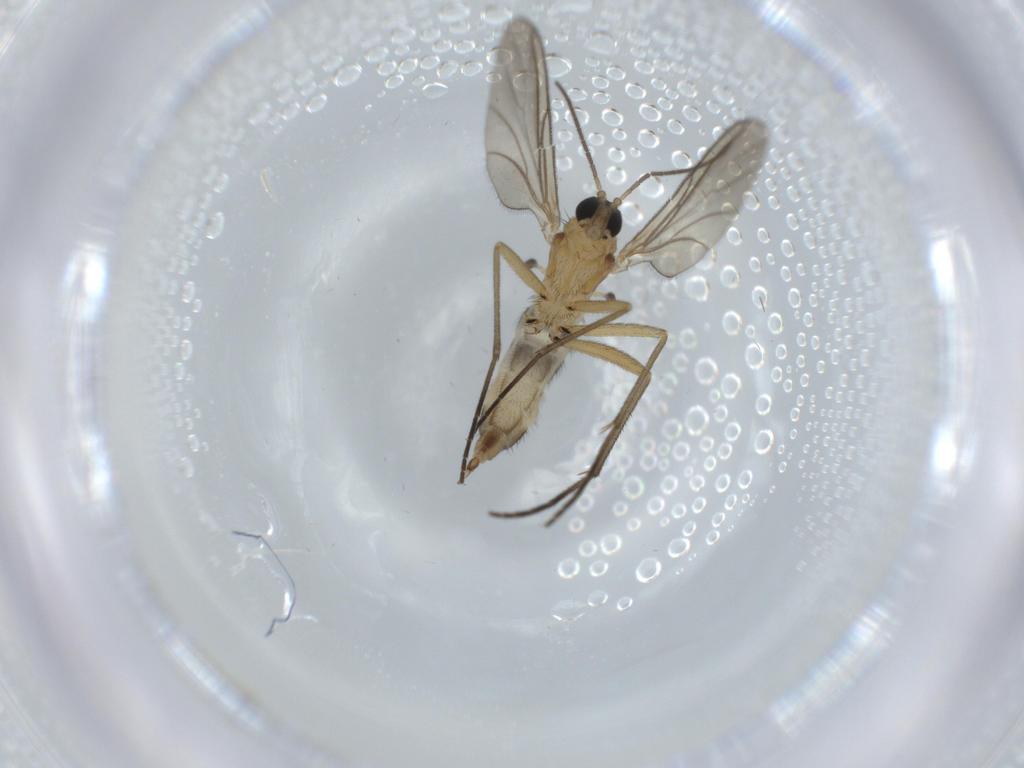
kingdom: Animalia
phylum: Arthropoda
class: Insecta
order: Diptera
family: Sciaridae
